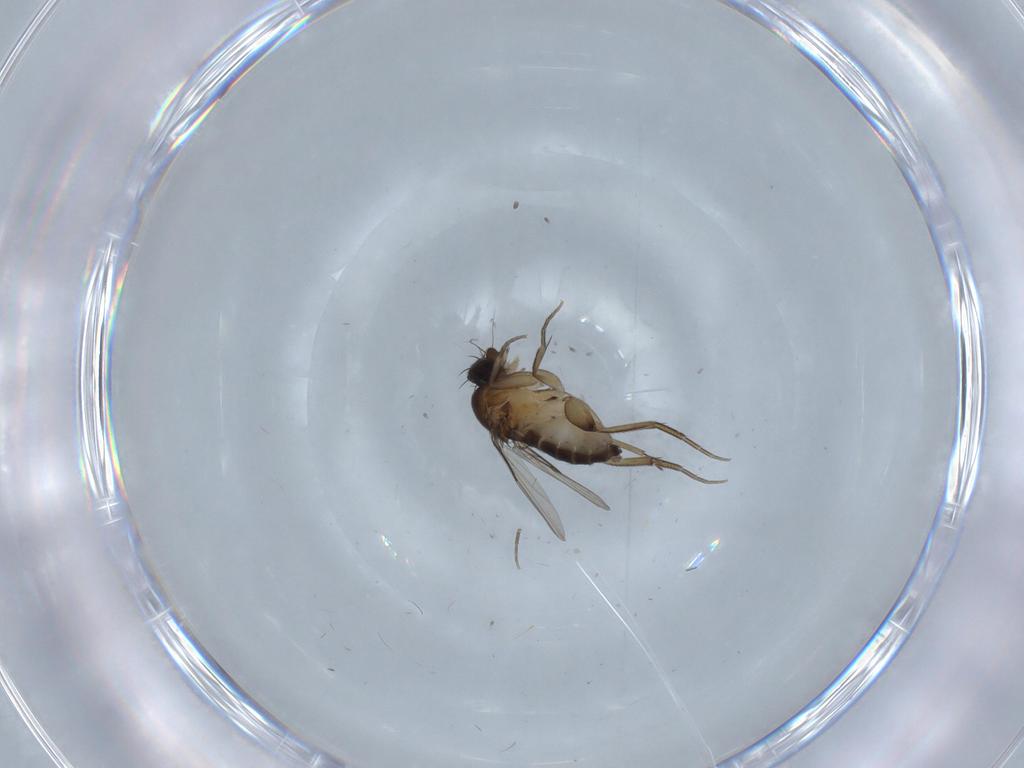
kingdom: Animalia
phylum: Arthropoda
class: Insecta
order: Diptera
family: Phoridae
